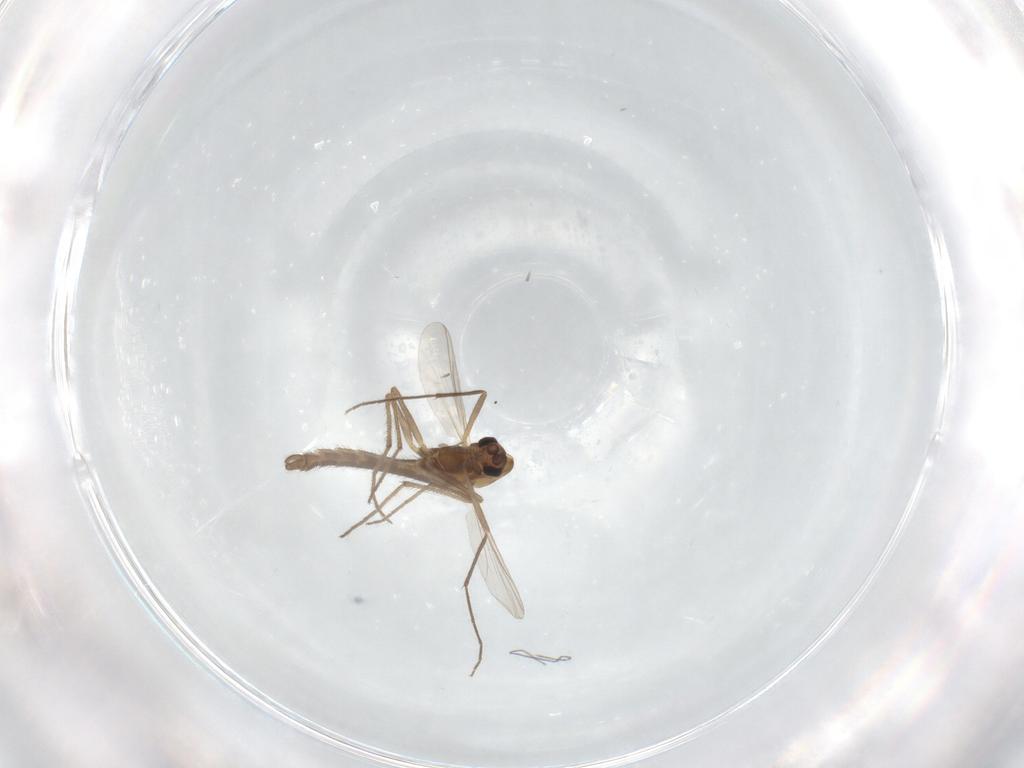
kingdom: Animalia
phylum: Arthropoda
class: Insecta
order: Diptera
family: Chironomidae
